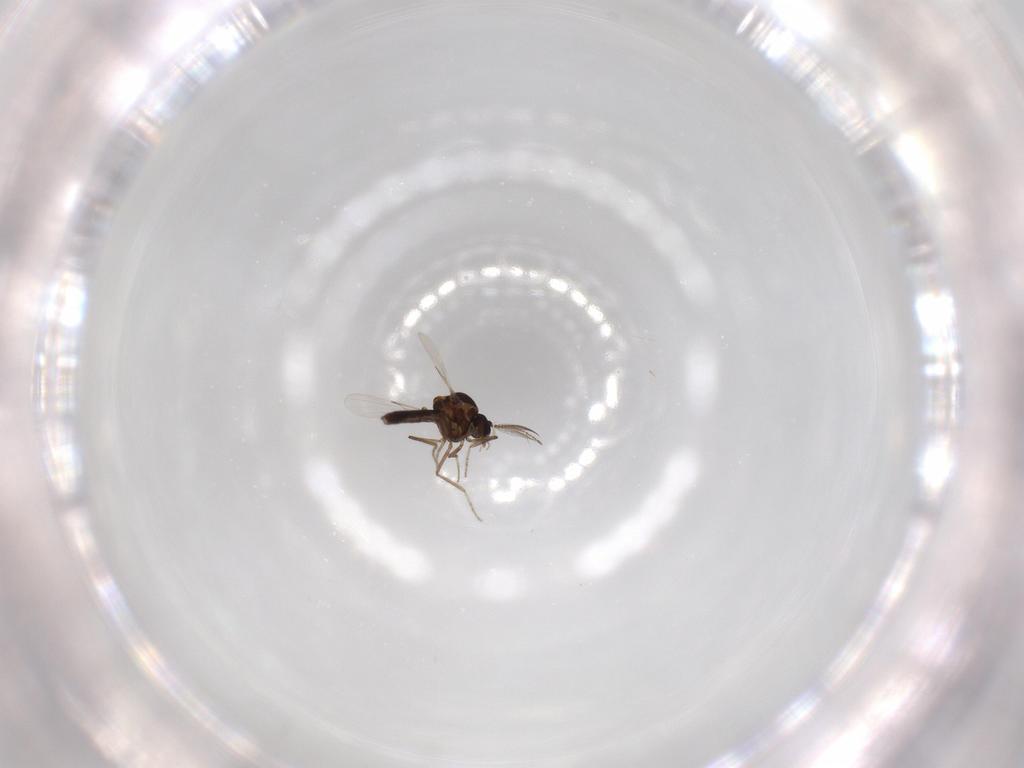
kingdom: Animalia
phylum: Arthropoda
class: Insecta
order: Diptera
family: Chironomidae
